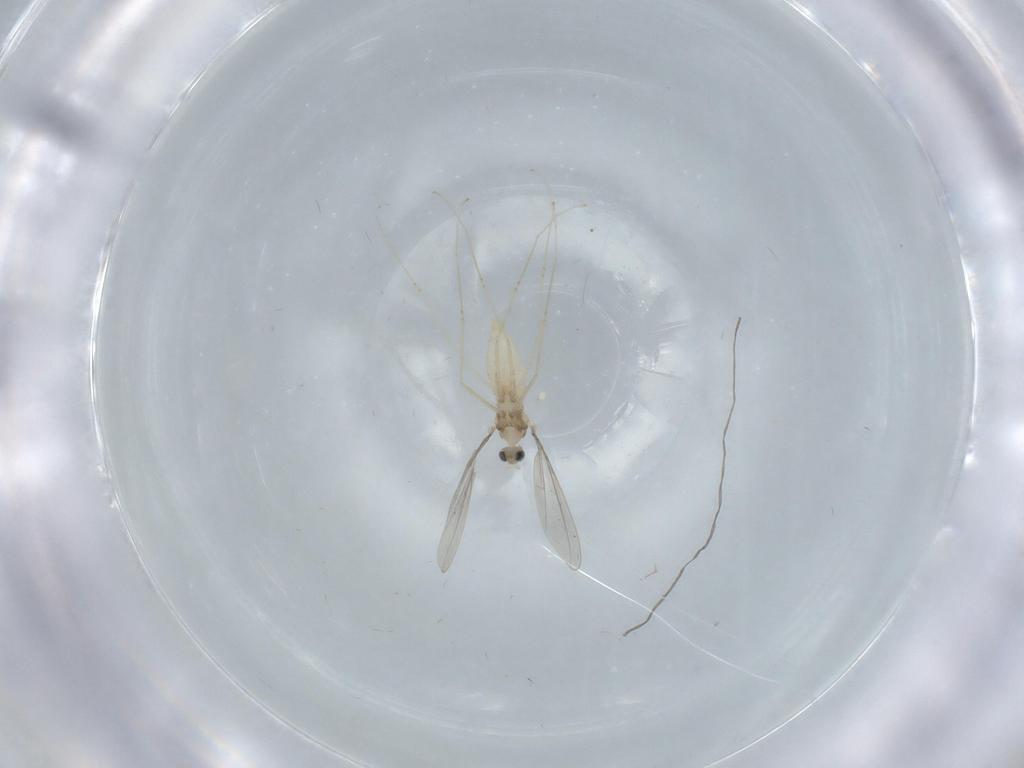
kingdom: Animalia
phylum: Arthropoda
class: Insecta
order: Diptera
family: Cecidomyiidae
